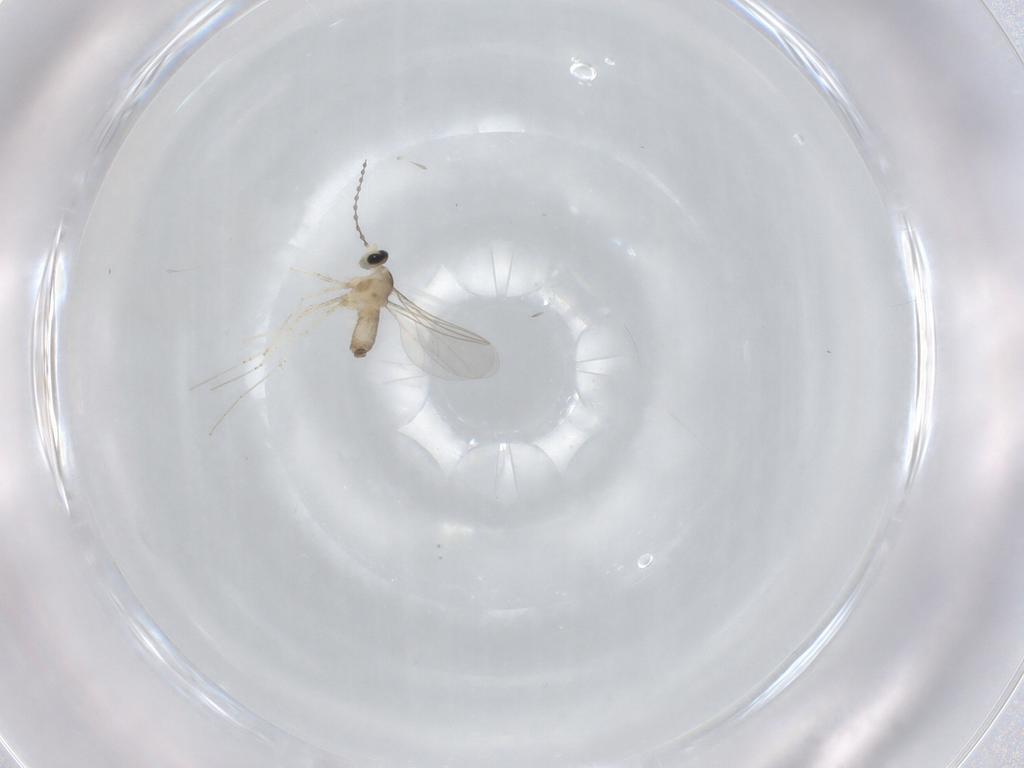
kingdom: Animalia
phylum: Arthropoda
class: Insecta
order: Diptera
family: Cecidomyiidae
